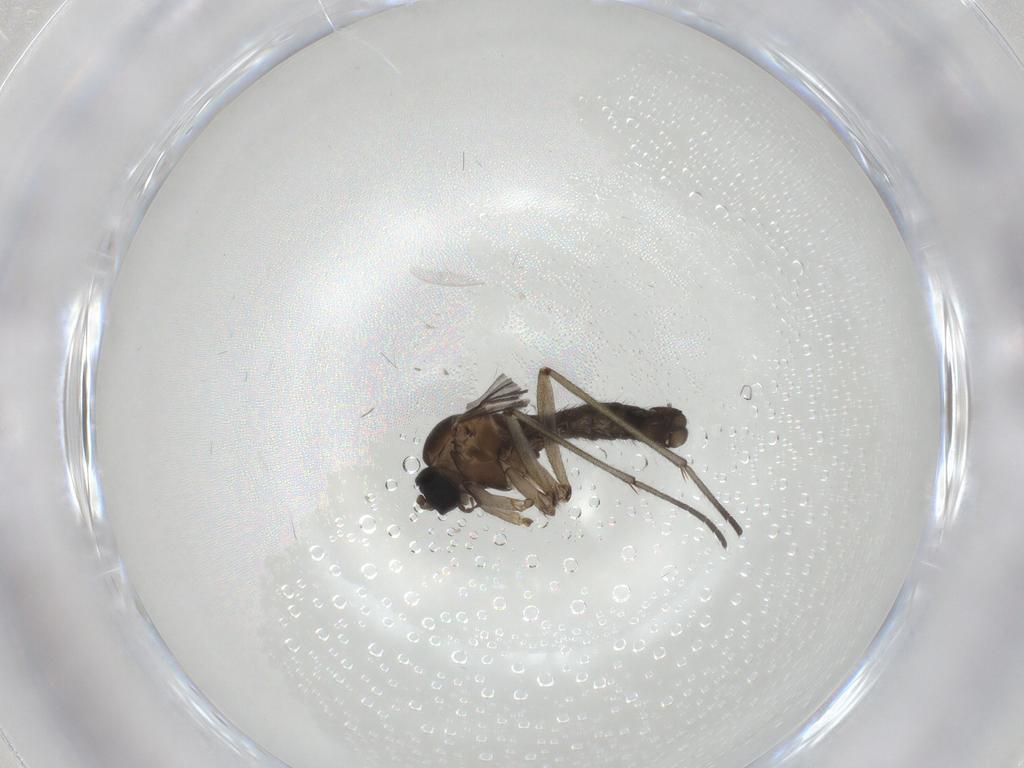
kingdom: Animalia
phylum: Arthropoda
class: Insecta
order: Diptera
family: Sciaridae
